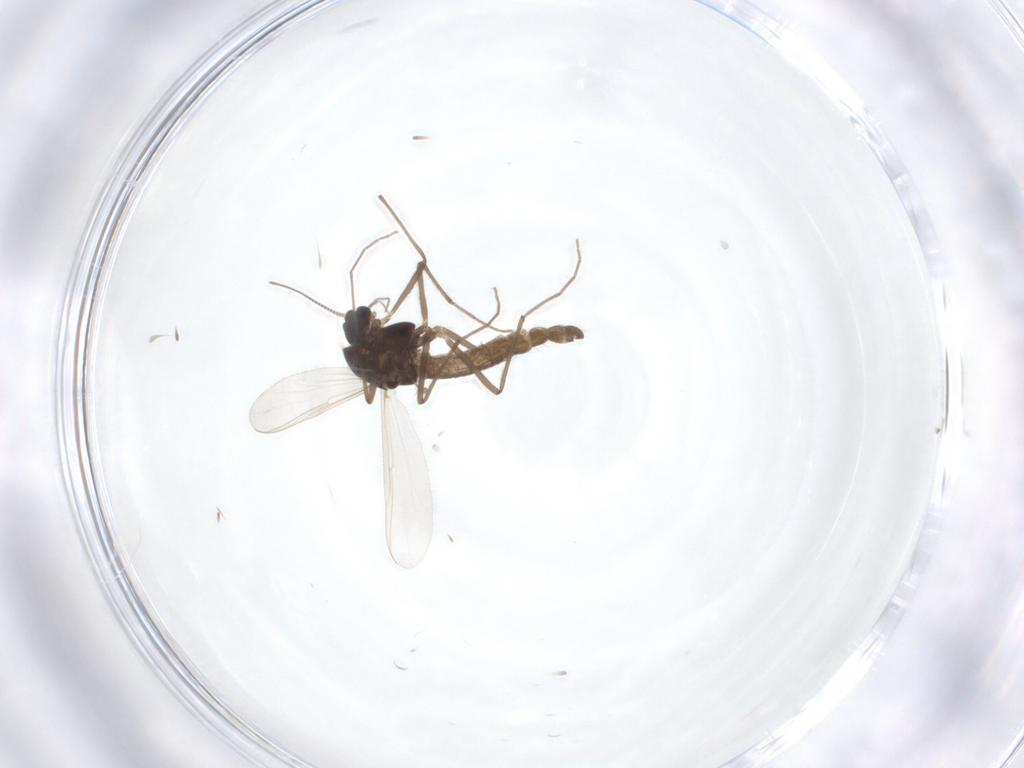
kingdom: Animalia
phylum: Arthropoda
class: Insecta
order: Diptera
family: Chironomidae
